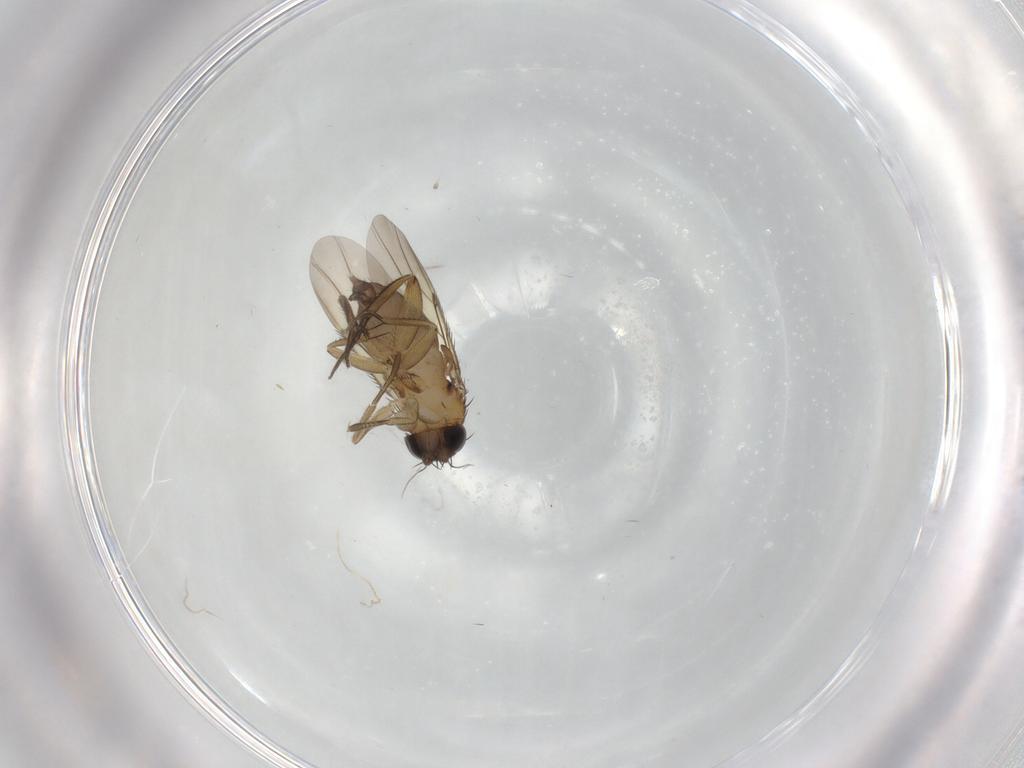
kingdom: Animalia
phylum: Arthropoda
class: Insecta
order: Diptera
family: Phoridae
